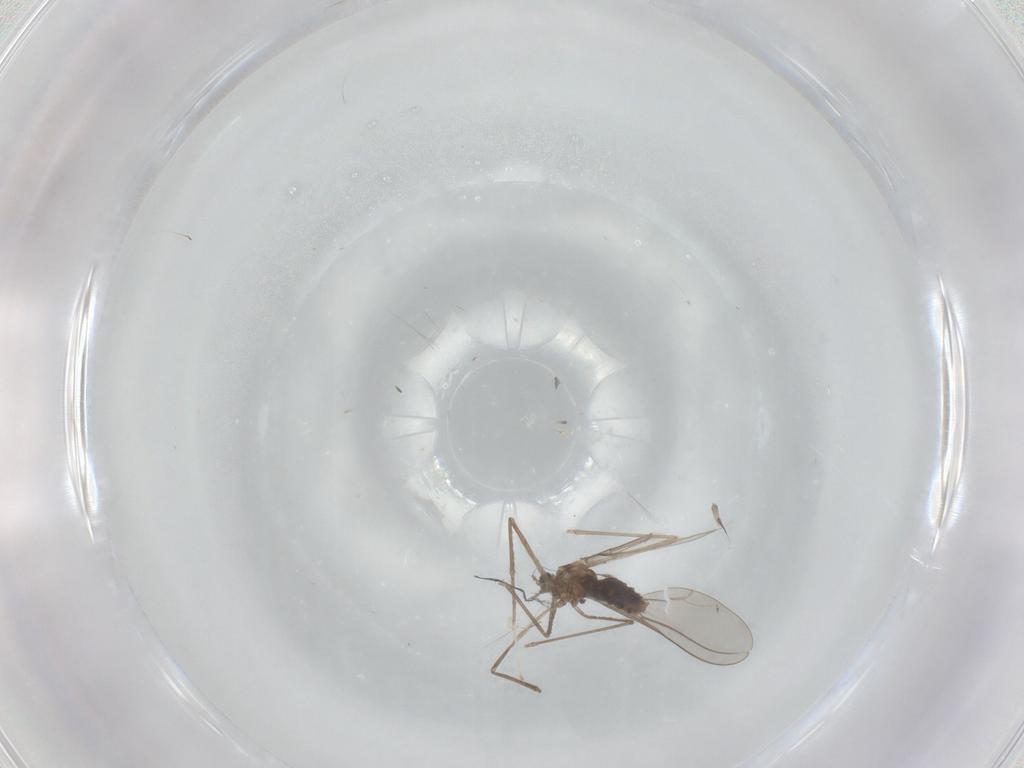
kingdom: Animalia
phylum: Arthropoda
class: Insecta
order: Diptera
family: Cecidomyiidae
